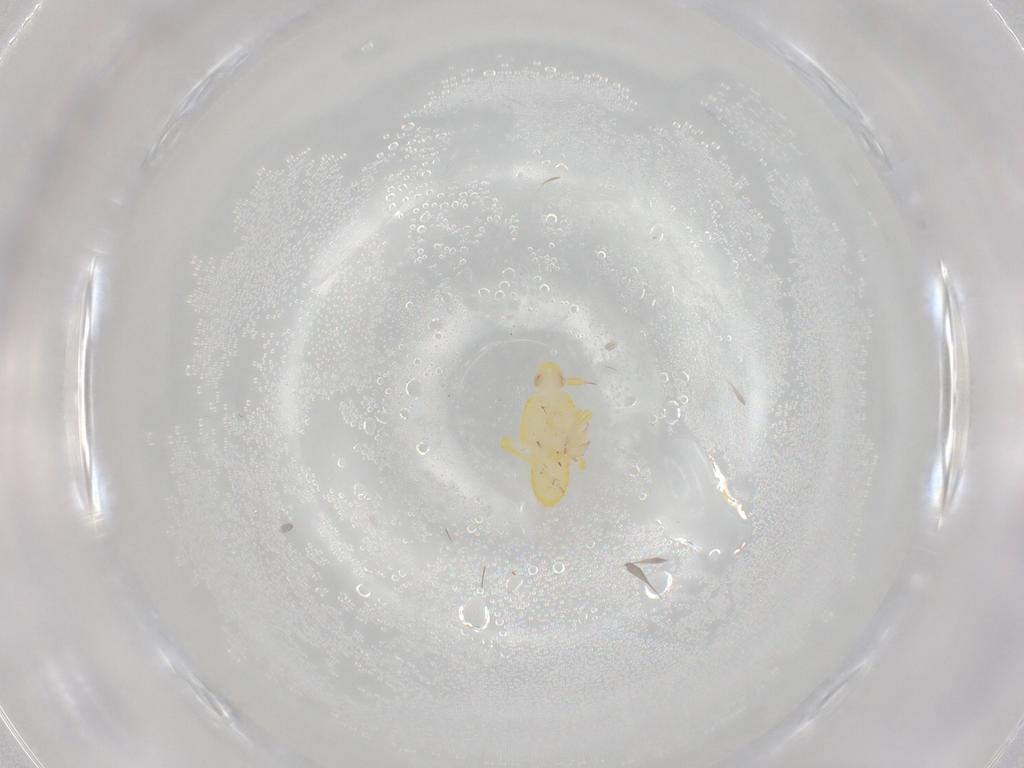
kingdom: Animalia
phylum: Arthropoda
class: Insecta
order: Hemiptera
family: Delphacidae
